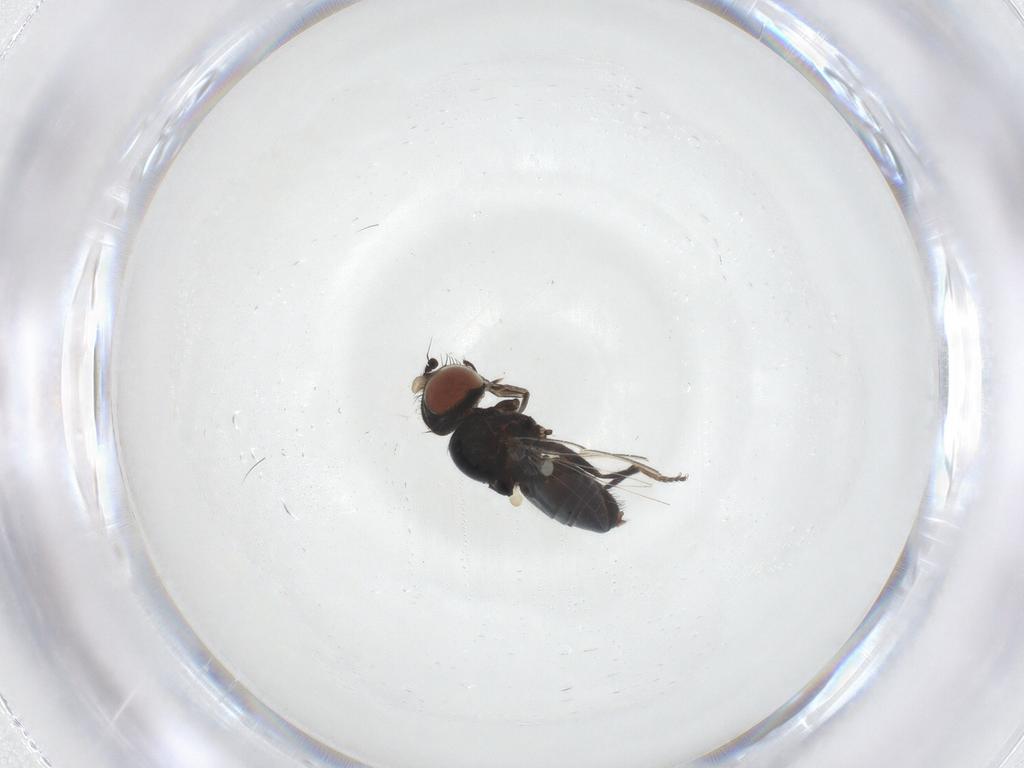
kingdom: Animalia
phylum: Arthropoda
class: Insecta
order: Diptera
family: Milichiidae
